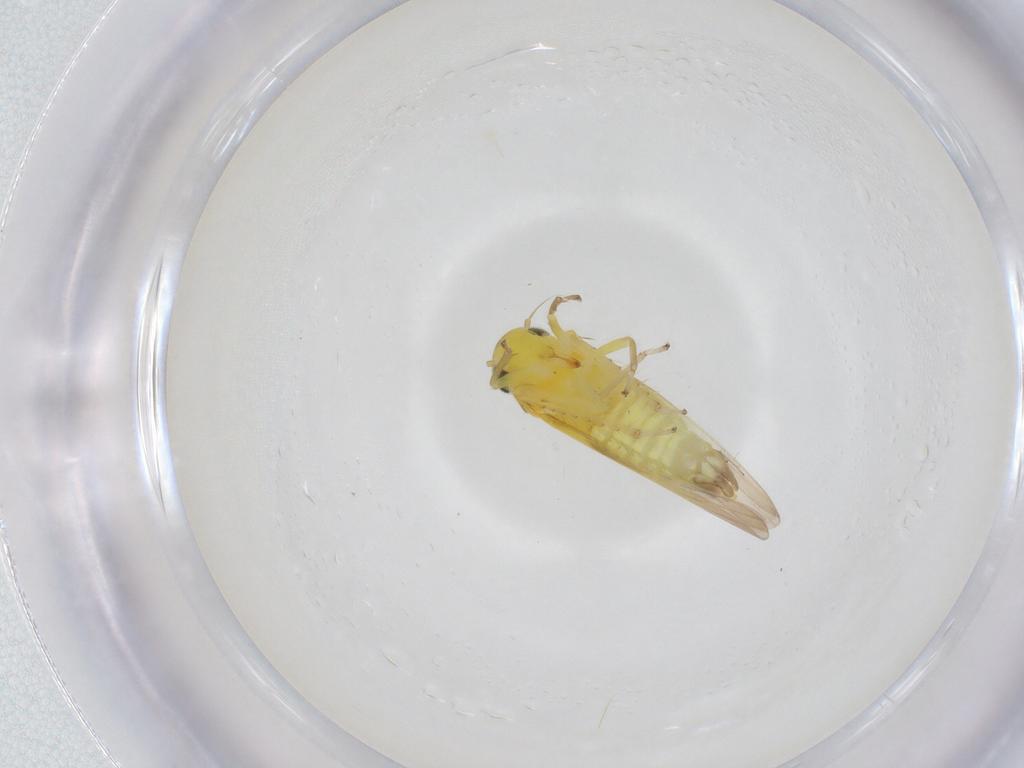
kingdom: Animalia
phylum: Arthropoda
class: Insecta
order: Hemiptera
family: Cicadellidae
